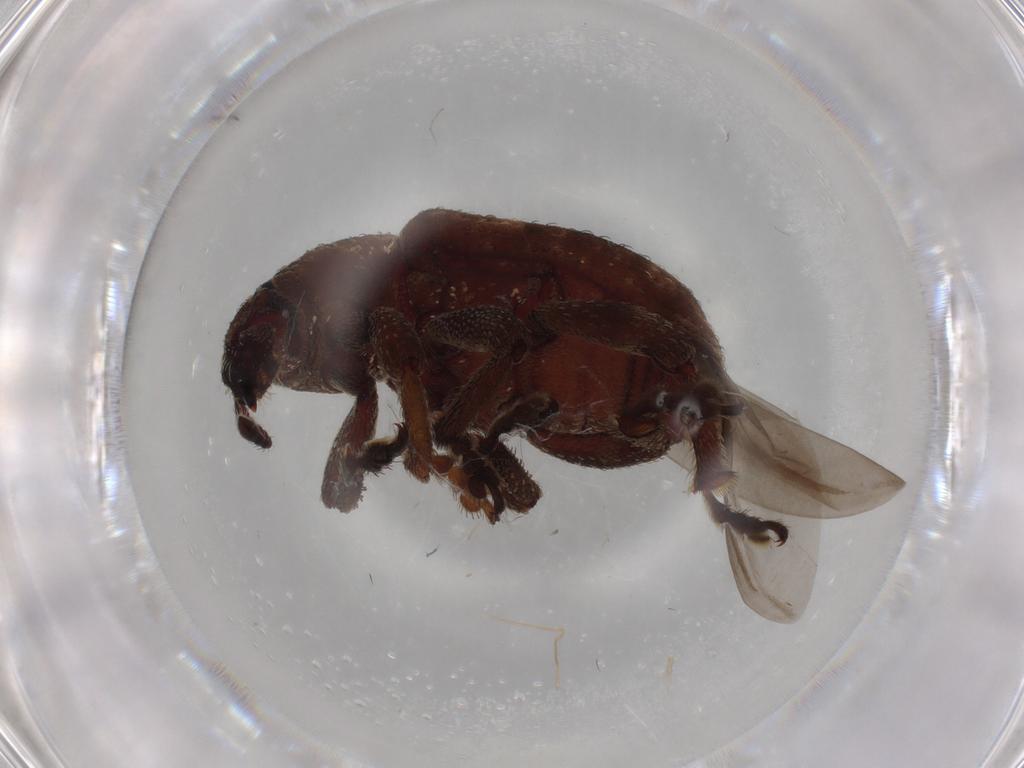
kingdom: Animalia
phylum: Arthropoda
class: Insecta
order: Coleoptera
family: Curculionidae
